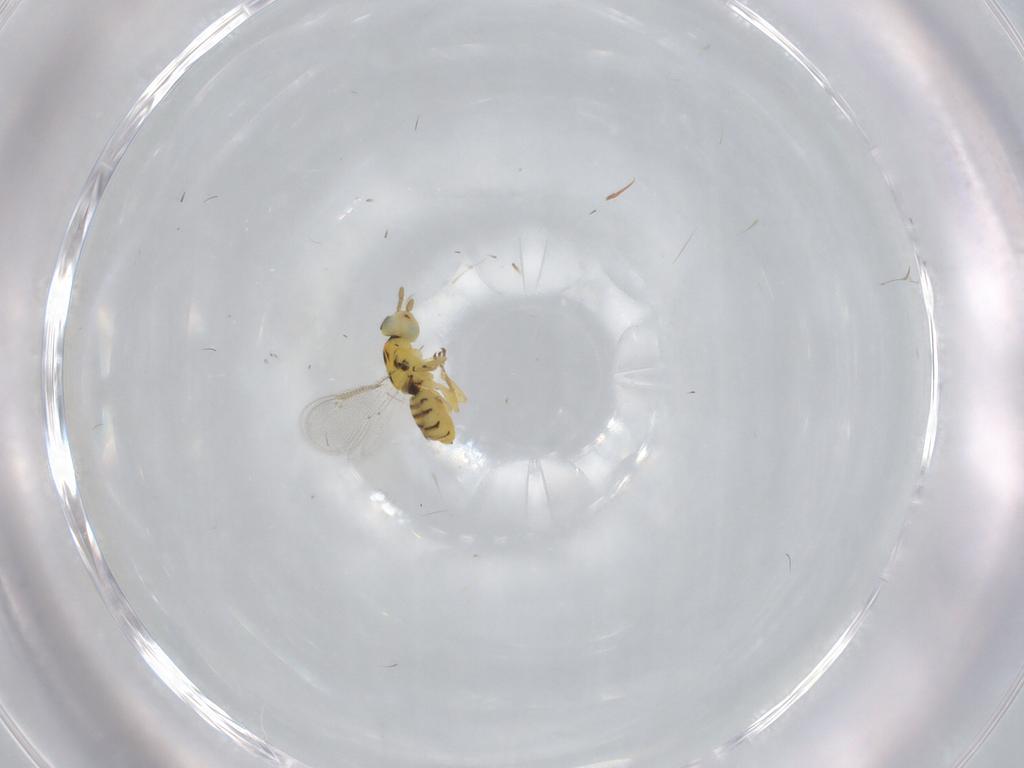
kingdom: Animalia
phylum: Arthropoda
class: Insecta
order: Hymenoptera
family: Eulophidae
